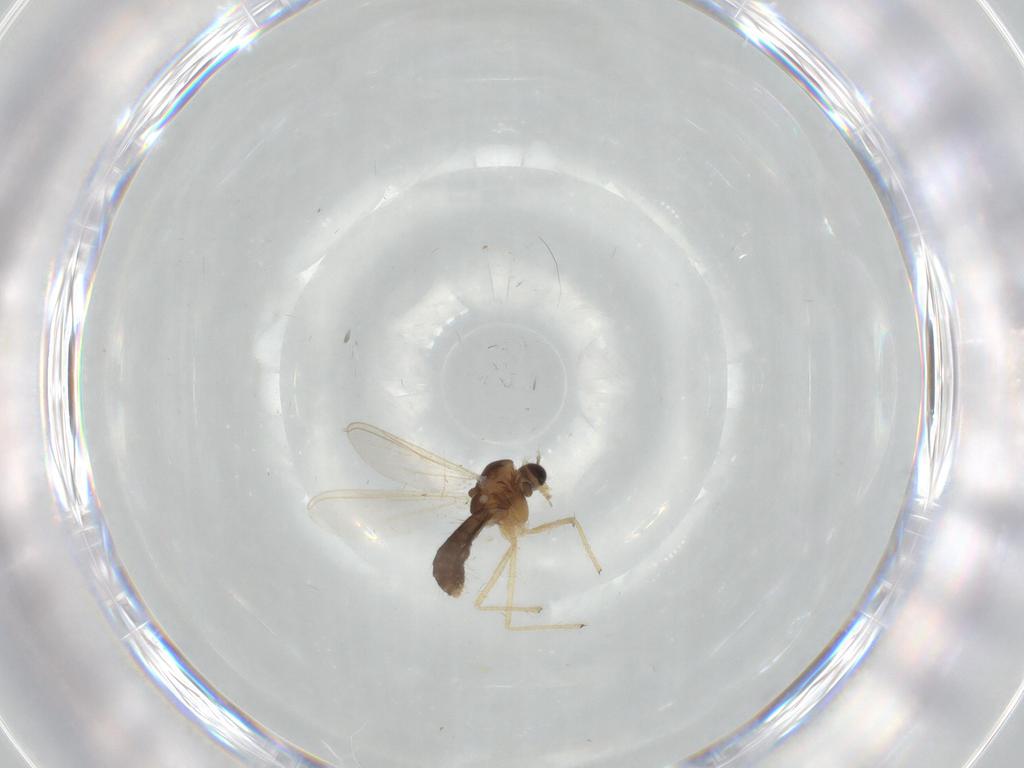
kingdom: Animalia
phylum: Arthropoda
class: Insecta
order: Diptera
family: Chironomidae
